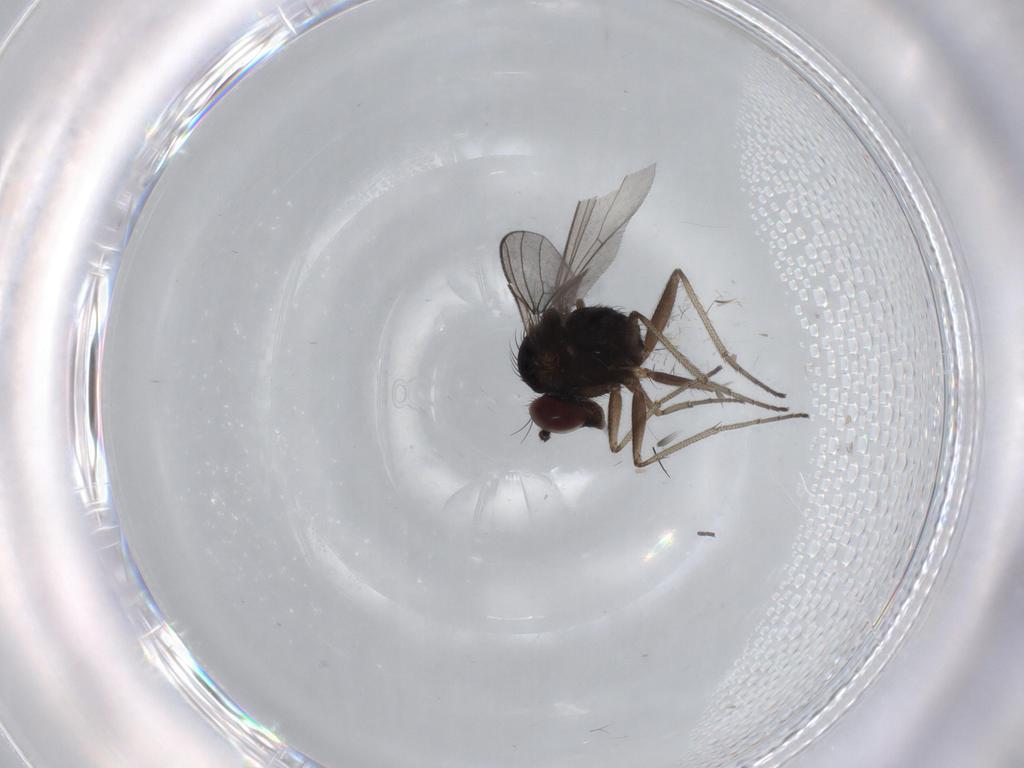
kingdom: Animalia
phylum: Arthropoda
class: Insecta
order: Diptera
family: Dolichopodidae
